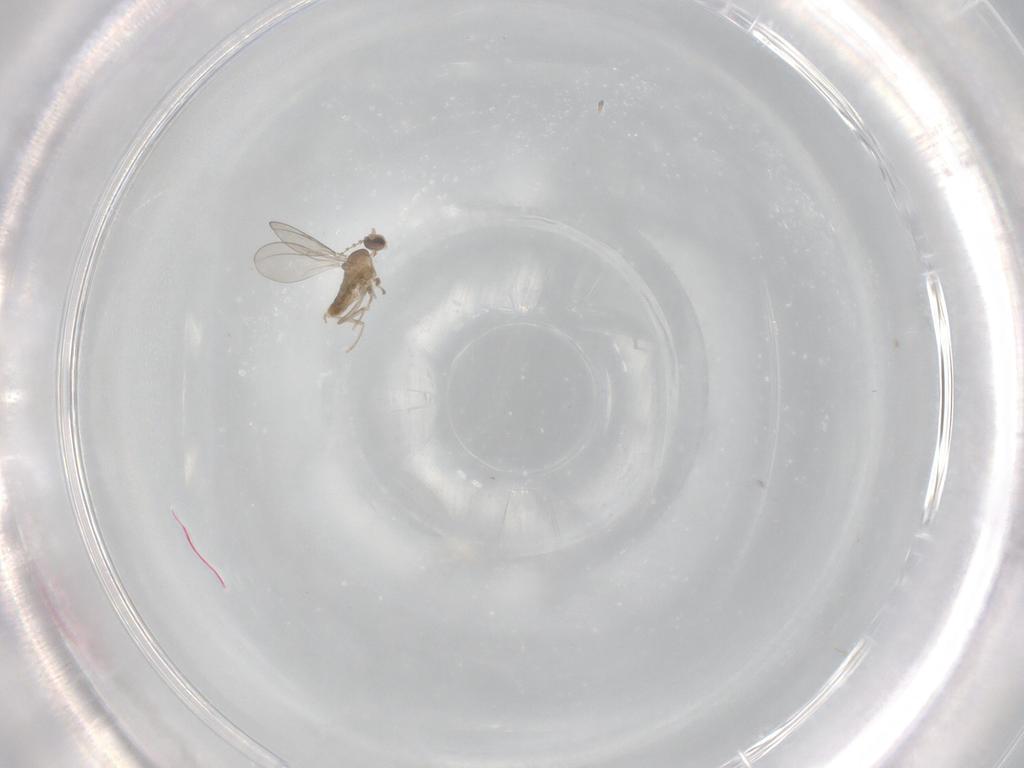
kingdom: Animalia
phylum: Arthropoda
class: Insecta
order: Diptera
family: Cecidomyiidae
